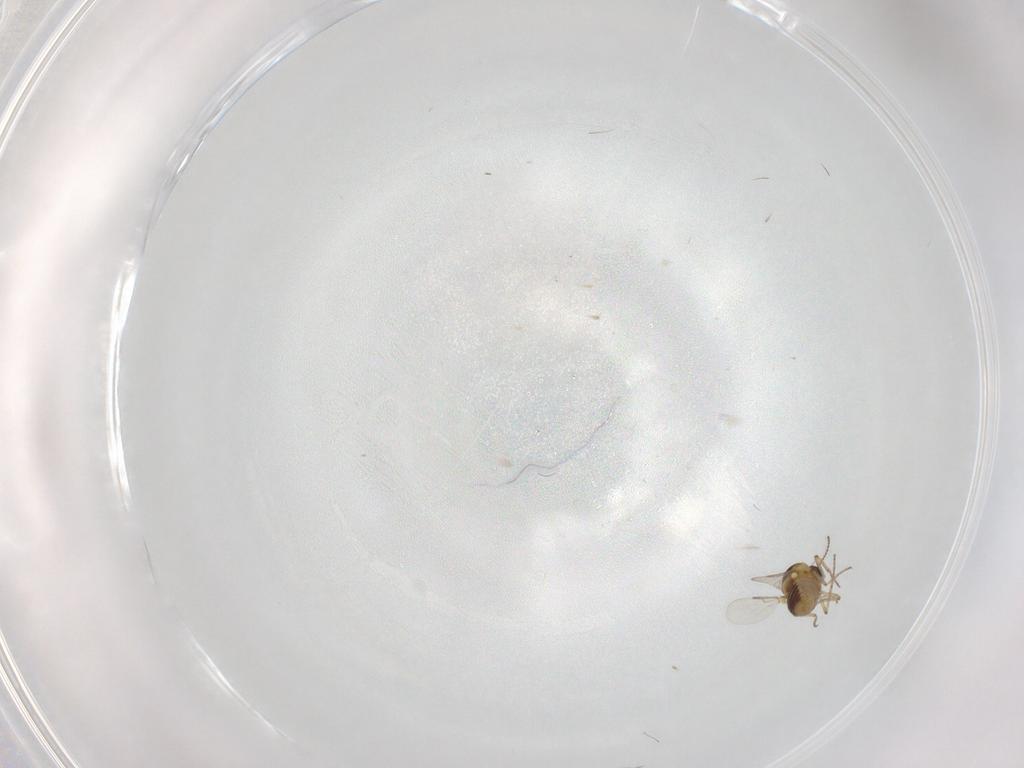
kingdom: Animalia
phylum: Arthropoda
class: Insecta
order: Diptera
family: Ceratopogonidae
